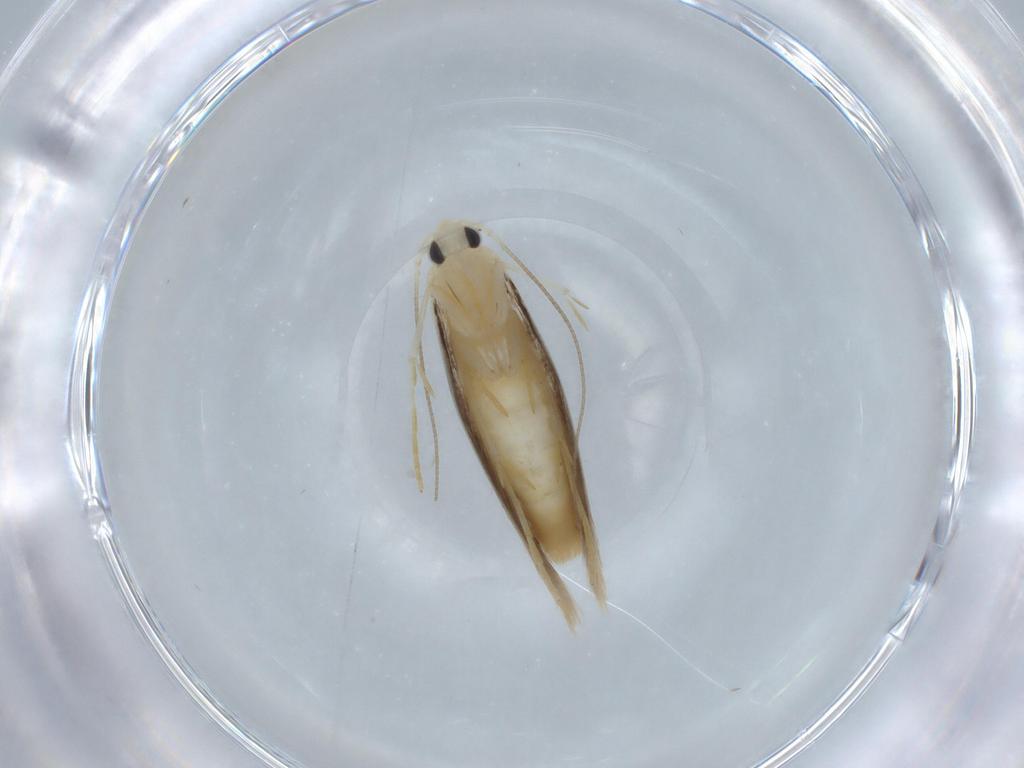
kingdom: Animalia
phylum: Arthropoda
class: Insecta
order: Lepidoptera
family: Gelechiidae
